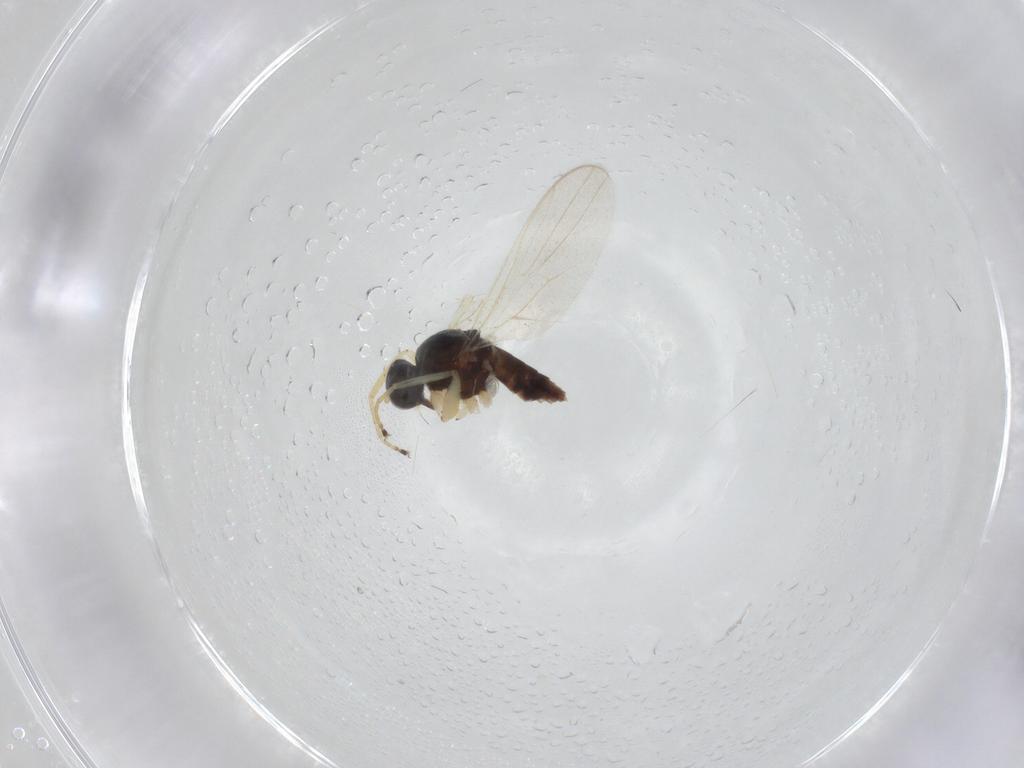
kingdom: Animalia
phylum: Arthropoda
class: Insecta
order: Diptera
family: Hybotidae
